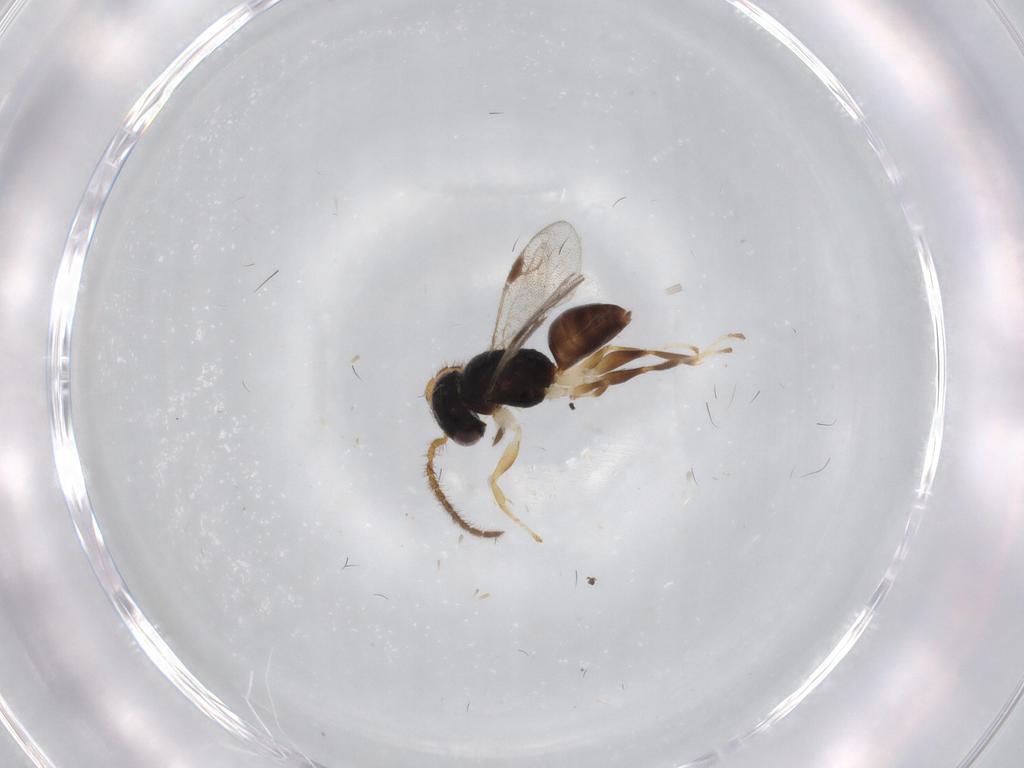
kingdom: Animalia
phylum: Arthropoda
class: Insecta
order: Hymenoptera
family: Dryinidae
